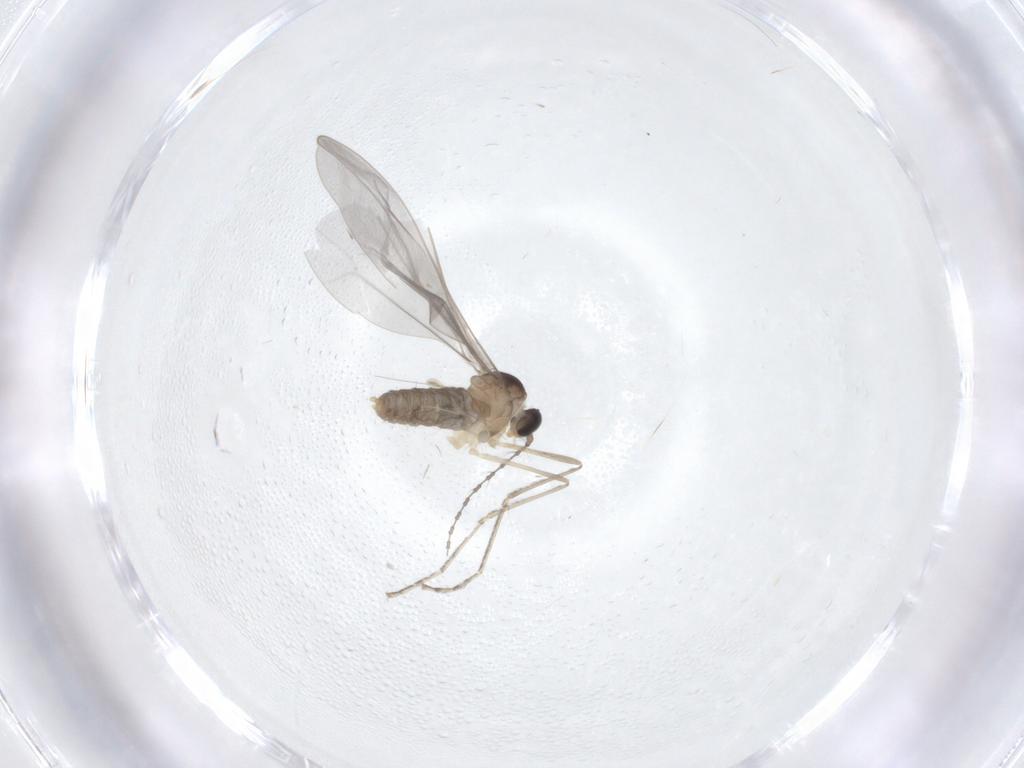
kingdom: Animalia
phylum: Arthropoda
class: Insecta
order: Diptera
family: Cecidomyiidae
